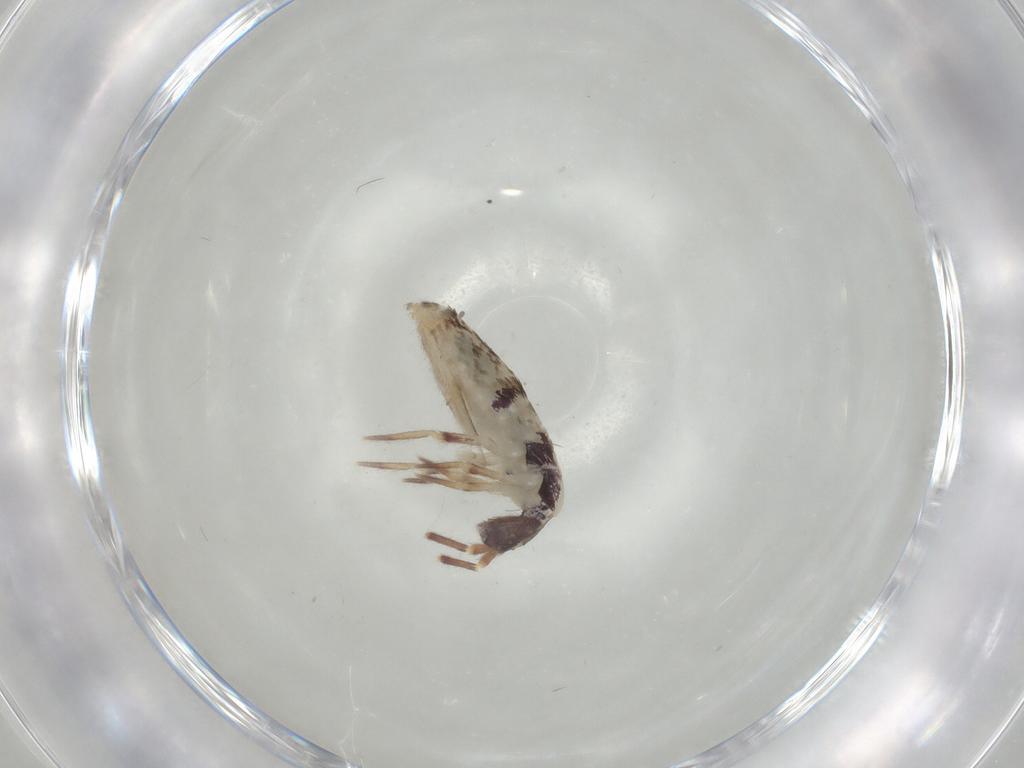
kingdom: Animalia
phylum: Arthropoda
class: Collembola
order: Entomobryomorpha
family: Entomobryidae
